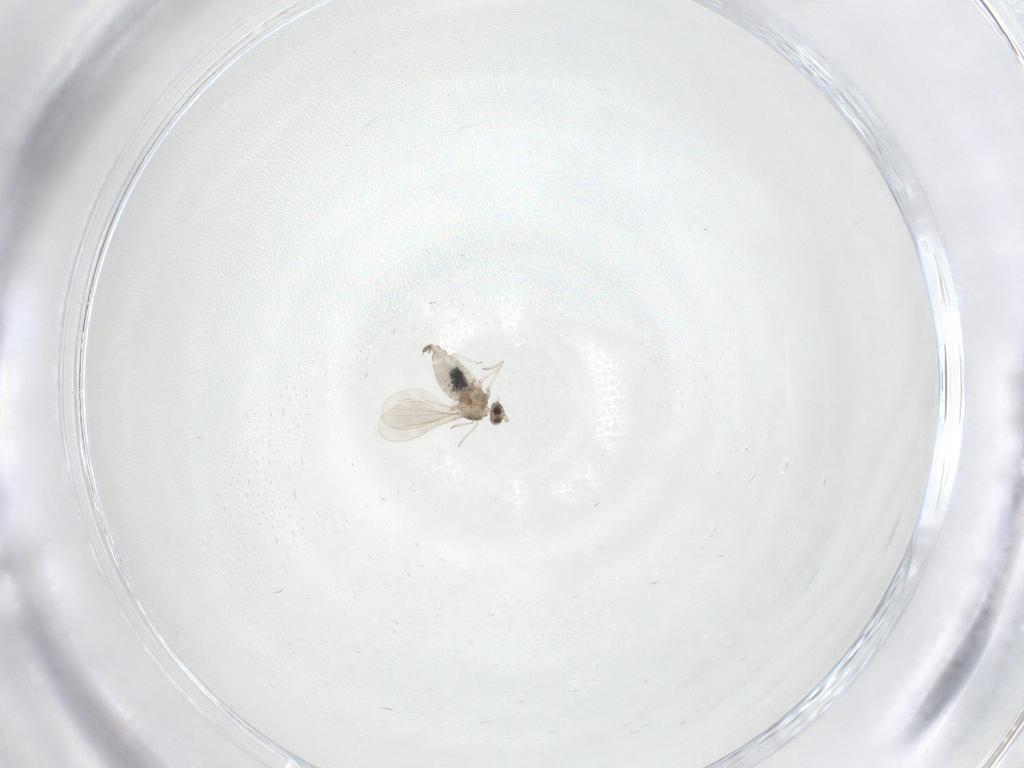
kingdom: Animalia
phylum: Arthropoda
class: Insecta
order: Diptera
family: Cecidomyiidae
